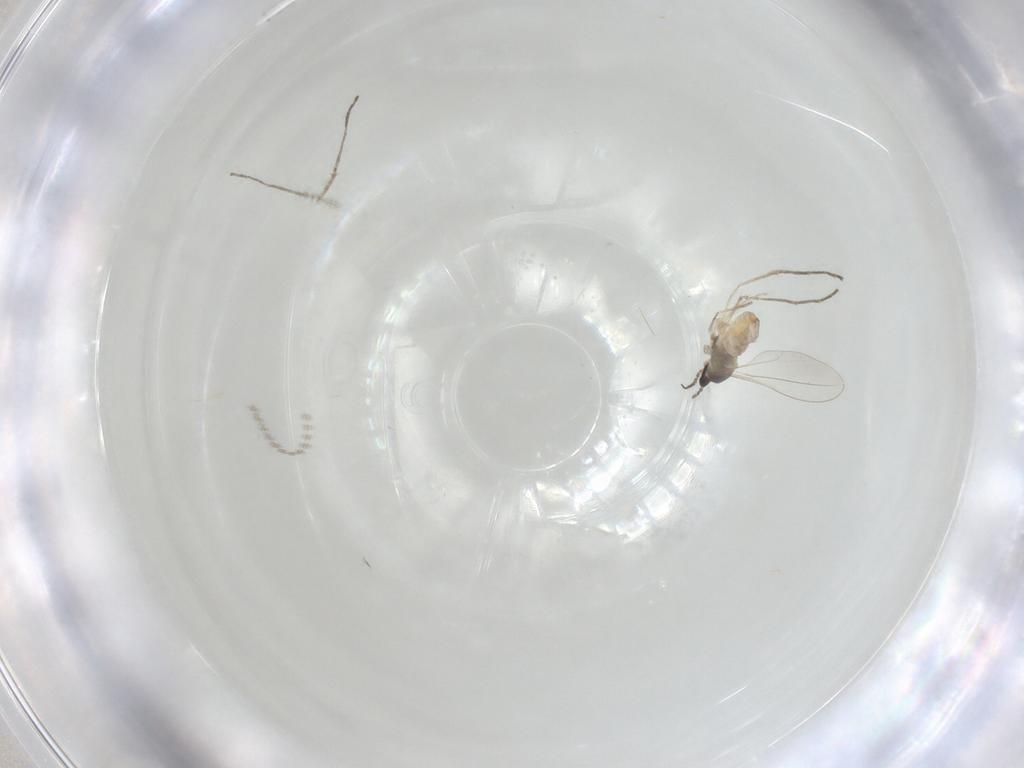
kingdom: Animalia
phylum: Arthropoda
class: Insecta
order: Diptera
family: Cecidomyiidae
